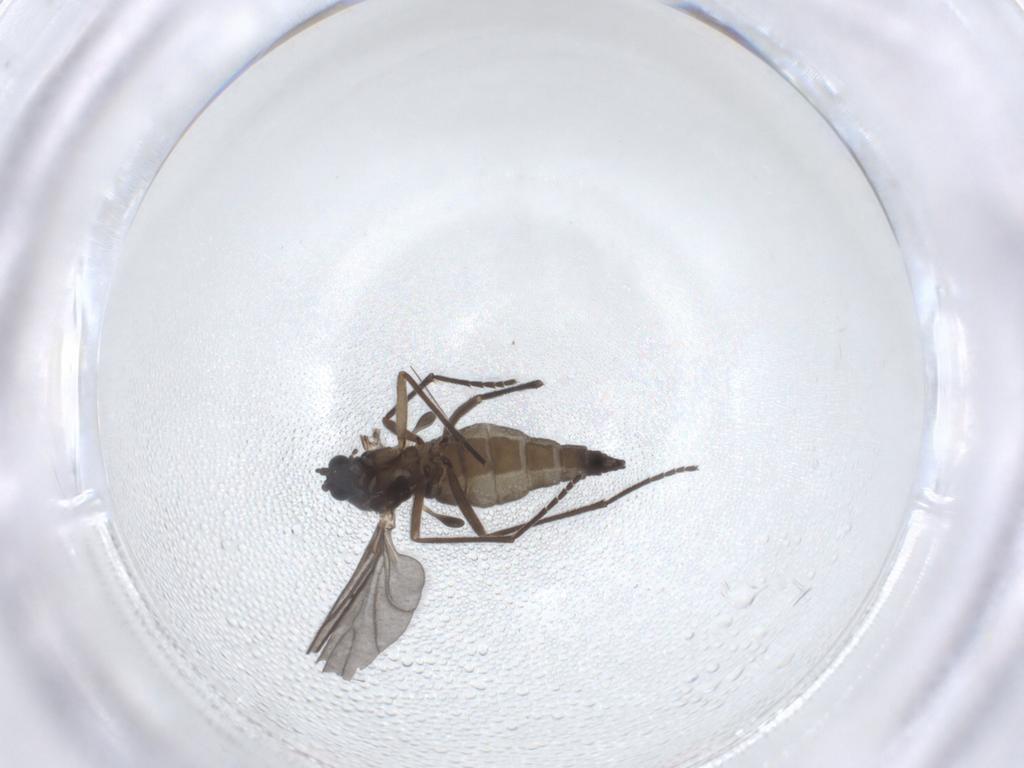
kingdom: Animalia
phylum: Arthropoda
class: Insecta
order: Diptera
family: Sciaridae
